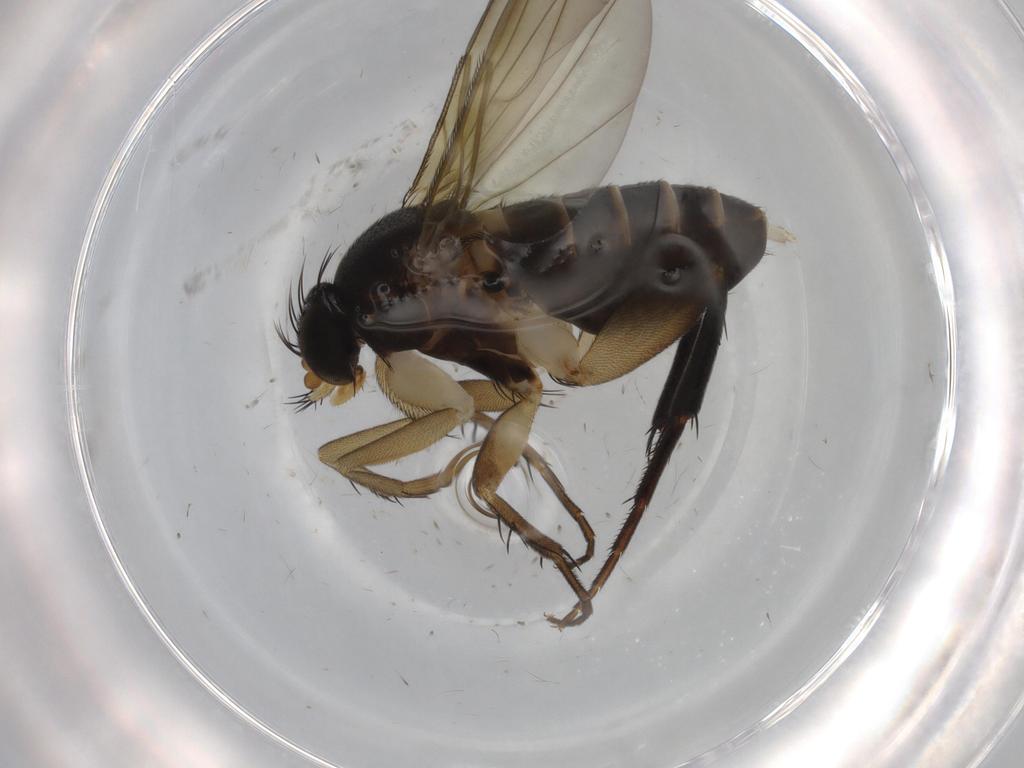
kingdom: Animalia
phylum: Arthropoda
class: Insecta
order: Diptera
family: Phoridae
